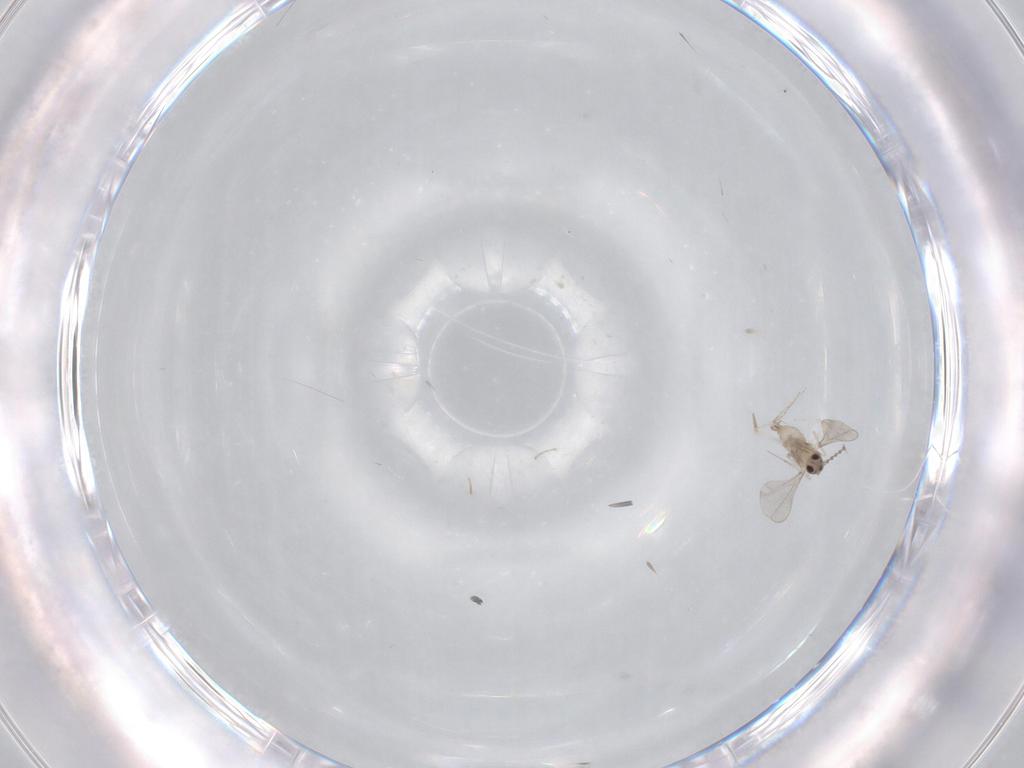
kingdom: Animalia
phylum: Arthropoda
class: Insecta
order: Diptera
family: Cecidomyiidae
